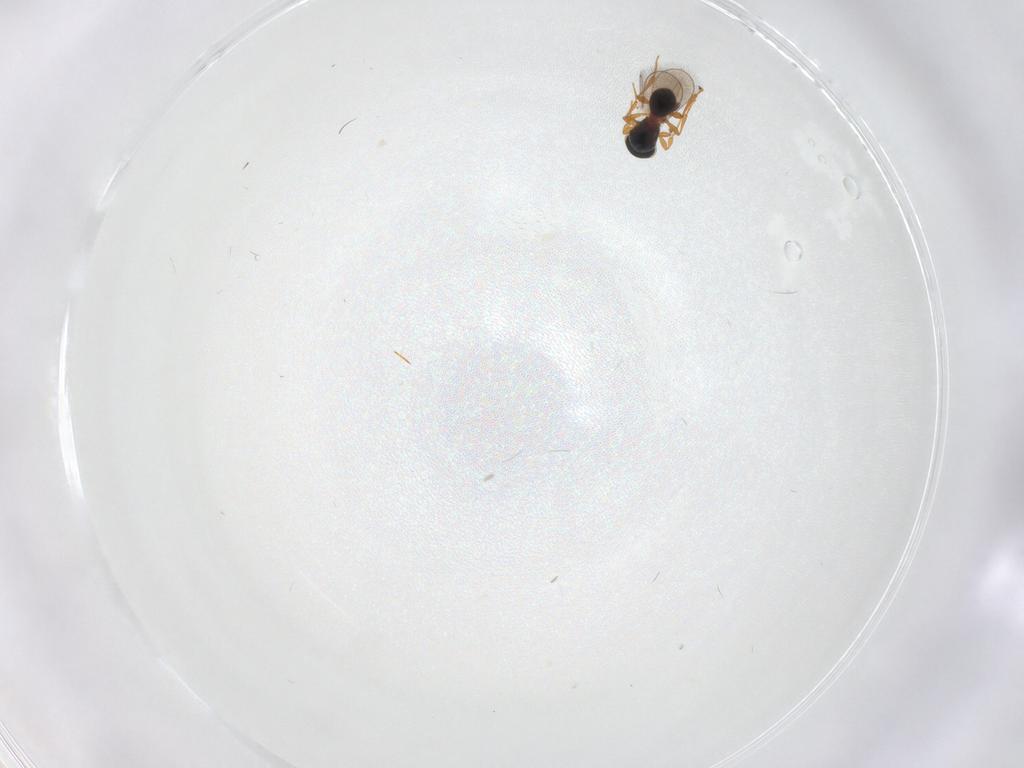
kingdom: Animalia
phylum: Arthropoda
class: Insecta
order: Hymenoptera
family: Platygastridae
